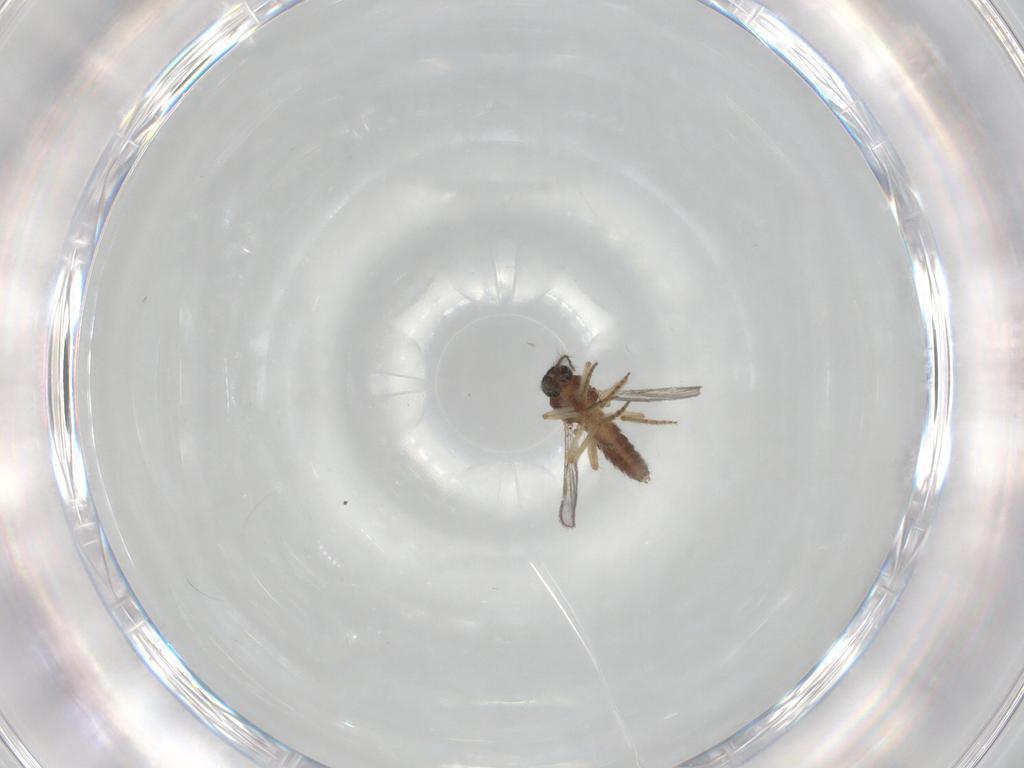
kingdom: Animalia
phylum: Arthropoda
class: Insecta
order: Diptera
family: Ceratopogonidae
